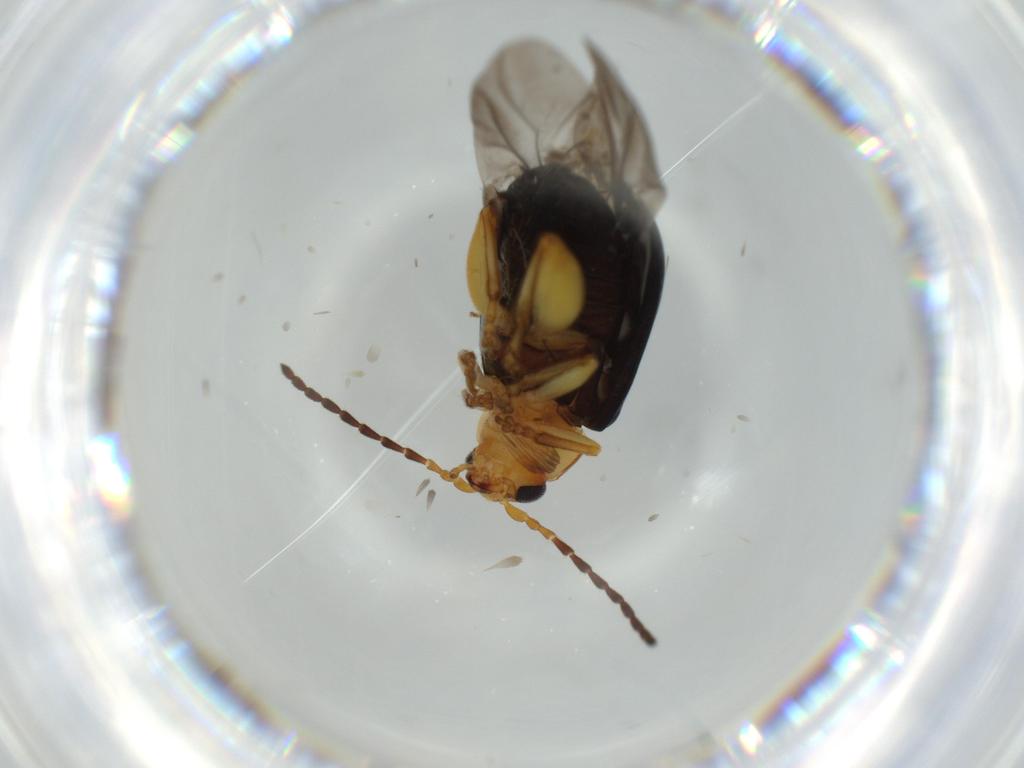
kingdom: Animalia
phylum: Arthropoda
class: Insecta
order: Coleoptera
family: Chrysomelidae
